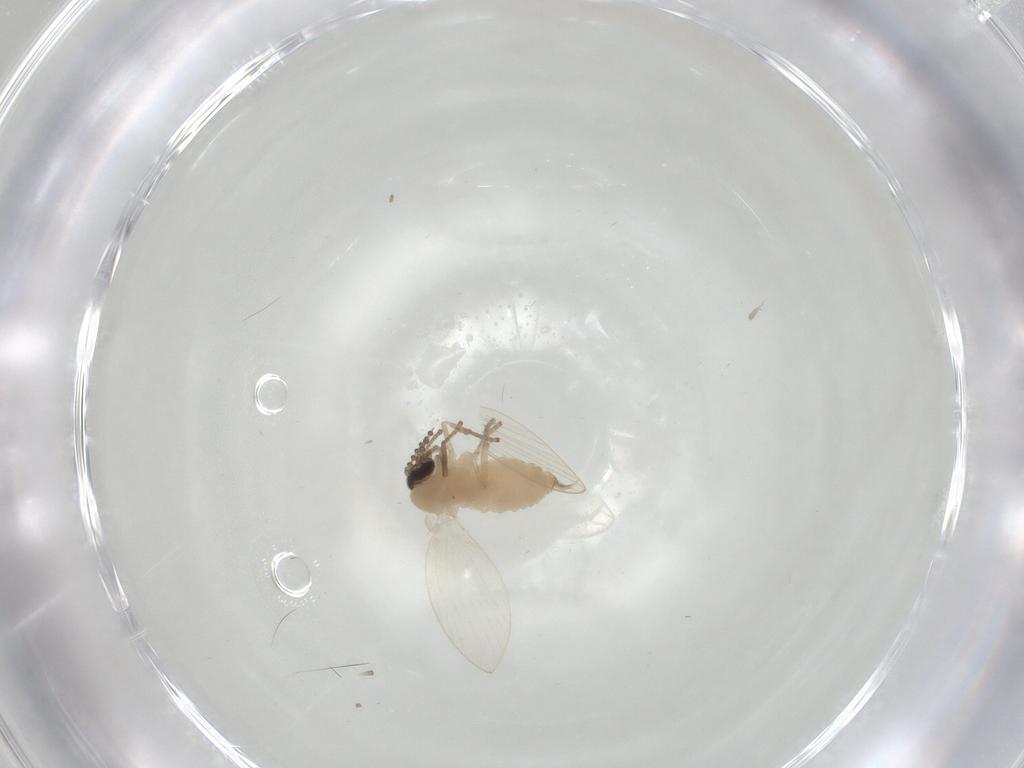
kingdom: Animalia
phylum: Arthropoda
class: Insecta
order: Diptera
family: Psychodidae
